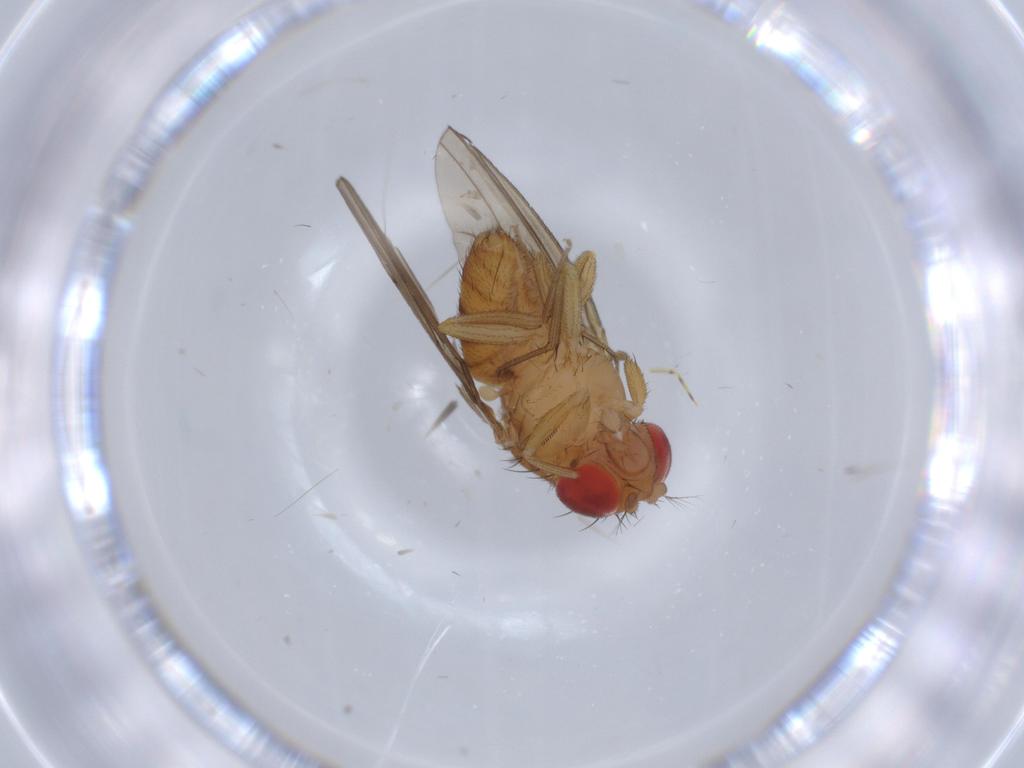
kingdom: Animalia
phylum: Arthropoda
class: Insecta
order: Diptera
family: Drosophilidae
